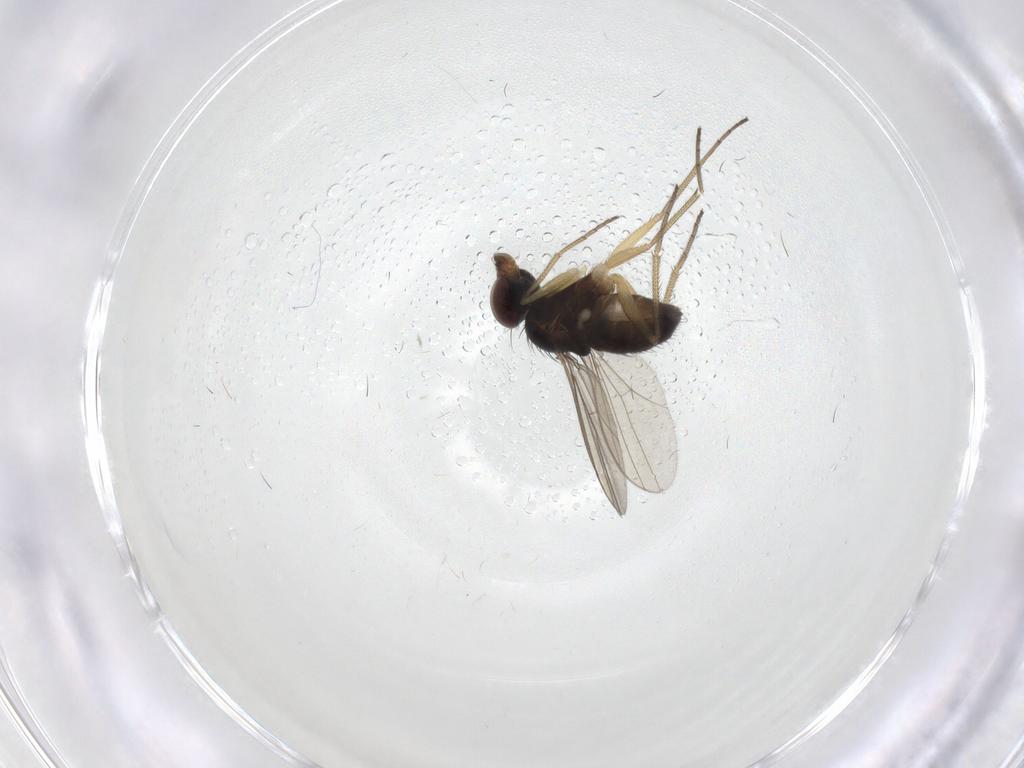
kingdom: Animalia
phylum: Arthropoda
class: Insecta
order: Diptera
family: Dolichopodidae
